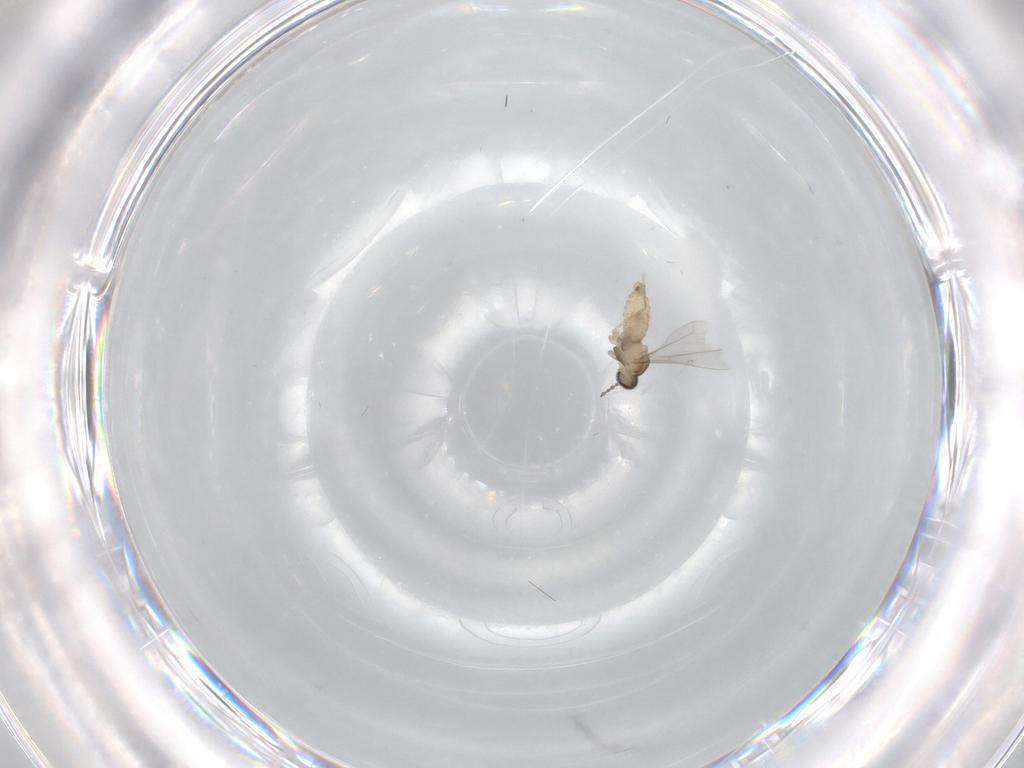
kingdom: Animalia
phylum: Arthropoda
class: Insecta
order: Diptera
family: Cecidomyiidae
